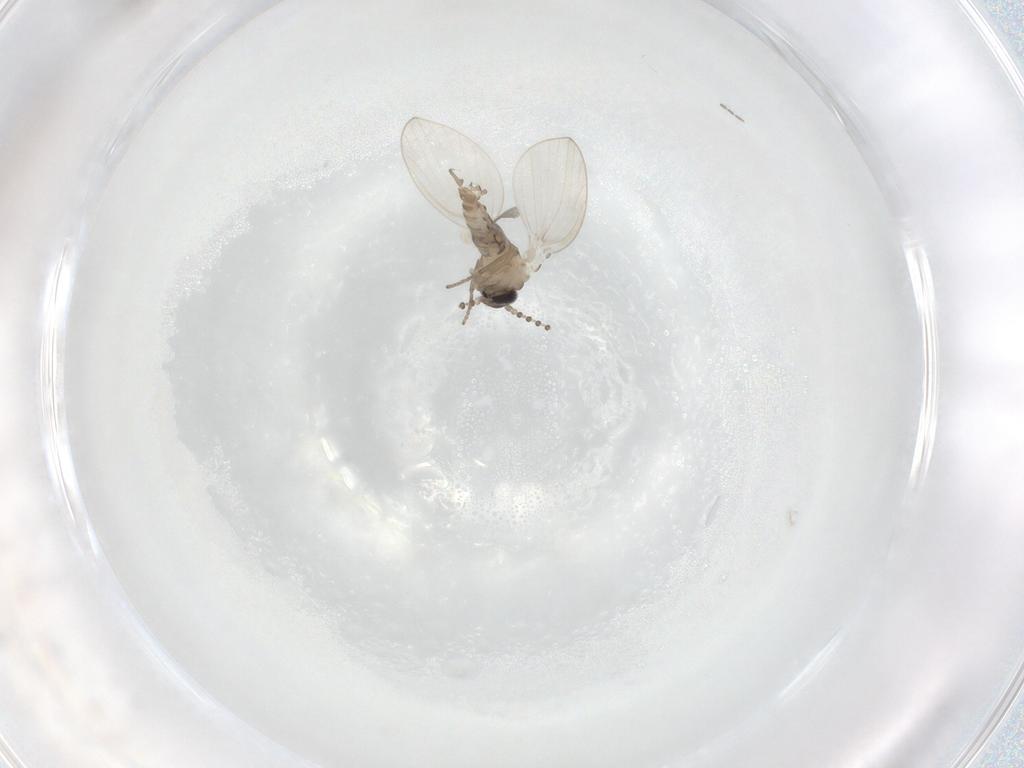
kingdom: Animalia
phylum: Arthropoda
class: Insecta
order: Diptera
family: Psychodidae
